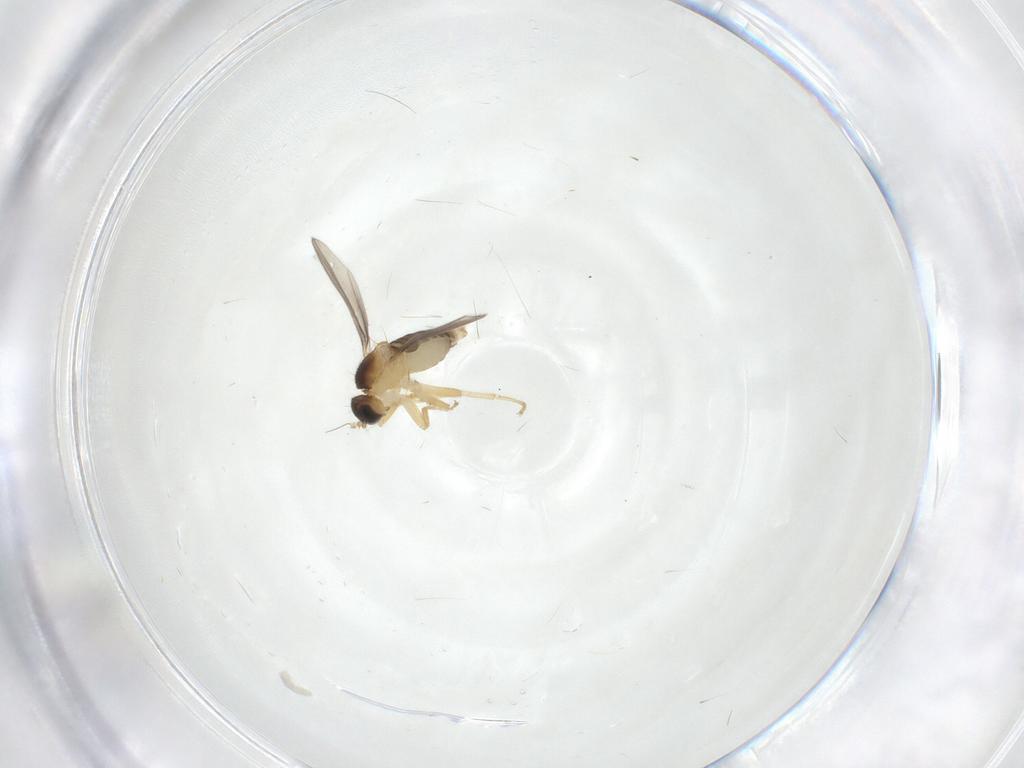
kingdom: Animalia
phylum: Arthropoda
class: Insecta
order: Diptera
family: Hybotidae
